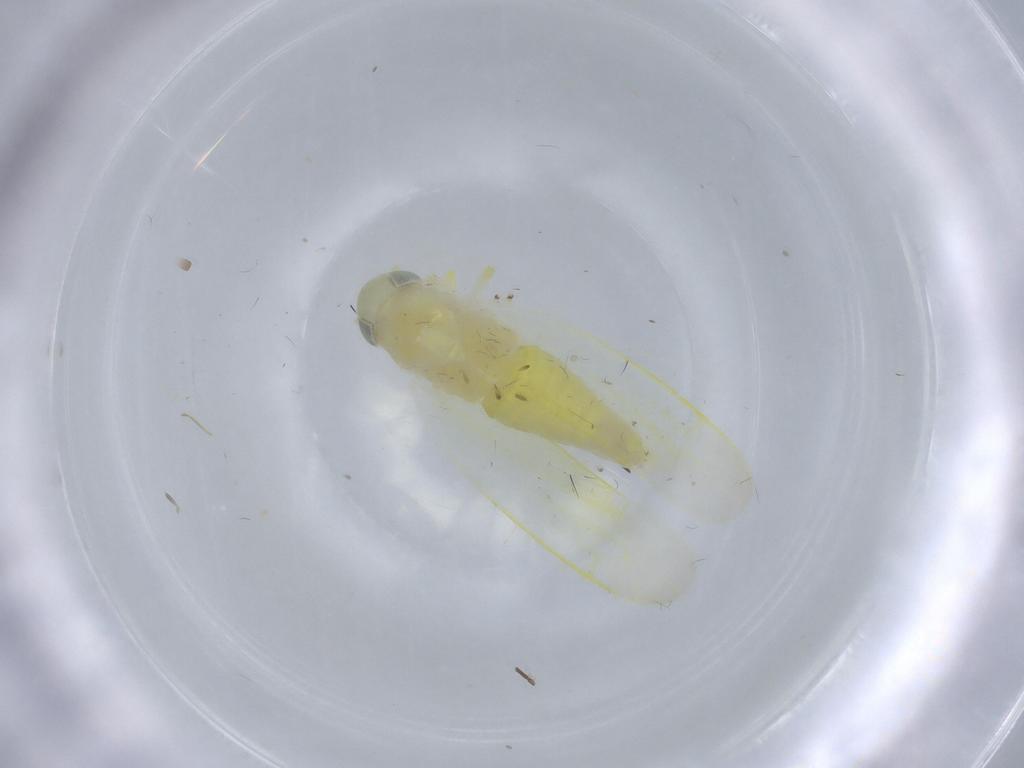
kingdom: Animalia
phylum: Arthropoda
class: Insecta
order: Hemiptera
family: Cicadellidae
